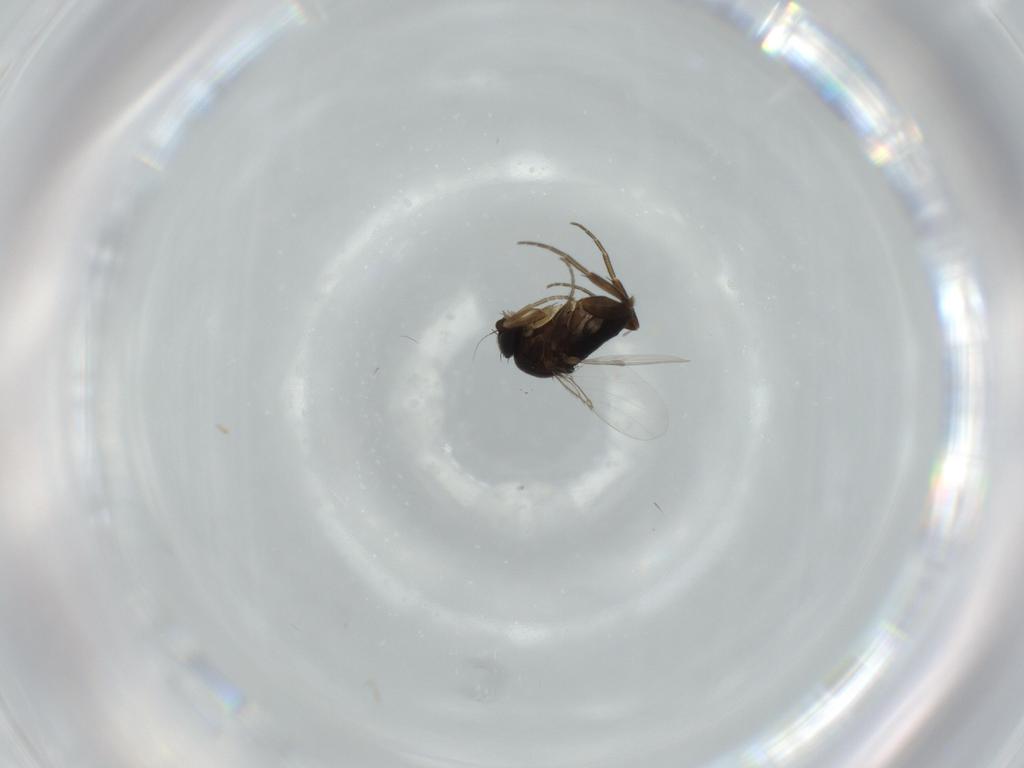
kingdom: Animalia
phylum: Arthropoda
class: Insecta
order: Diptera
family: Phoridae
